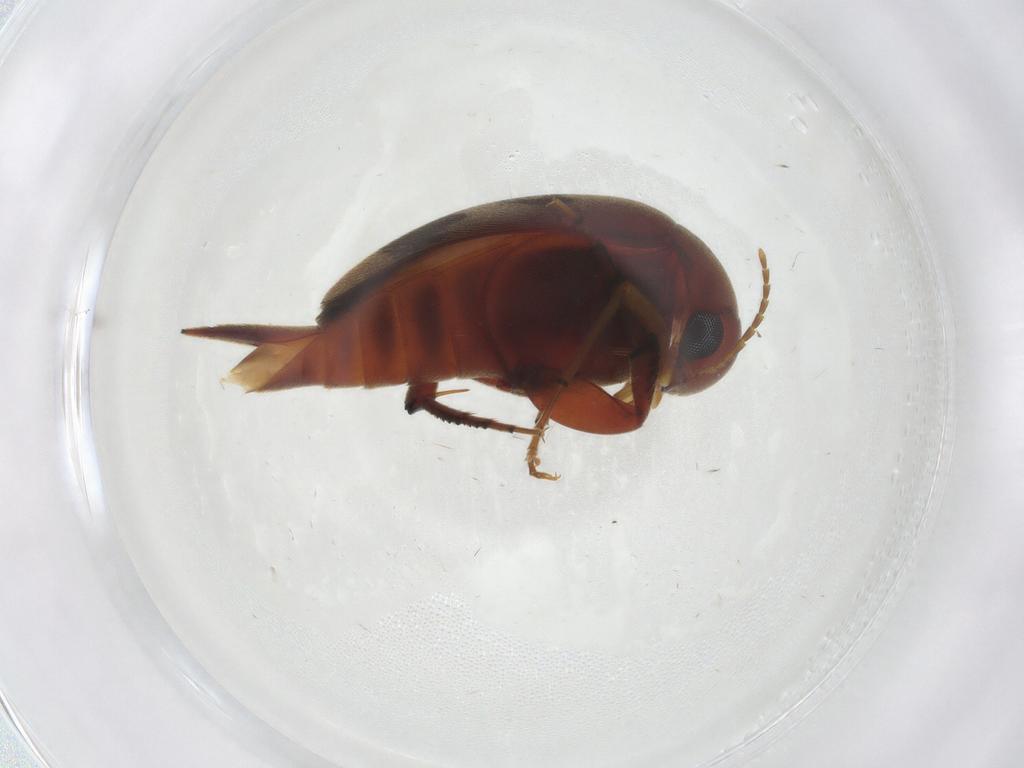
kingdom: Animalia
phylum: Arthropoda
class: Insecta
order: Coleoptera
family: Mordellidae
